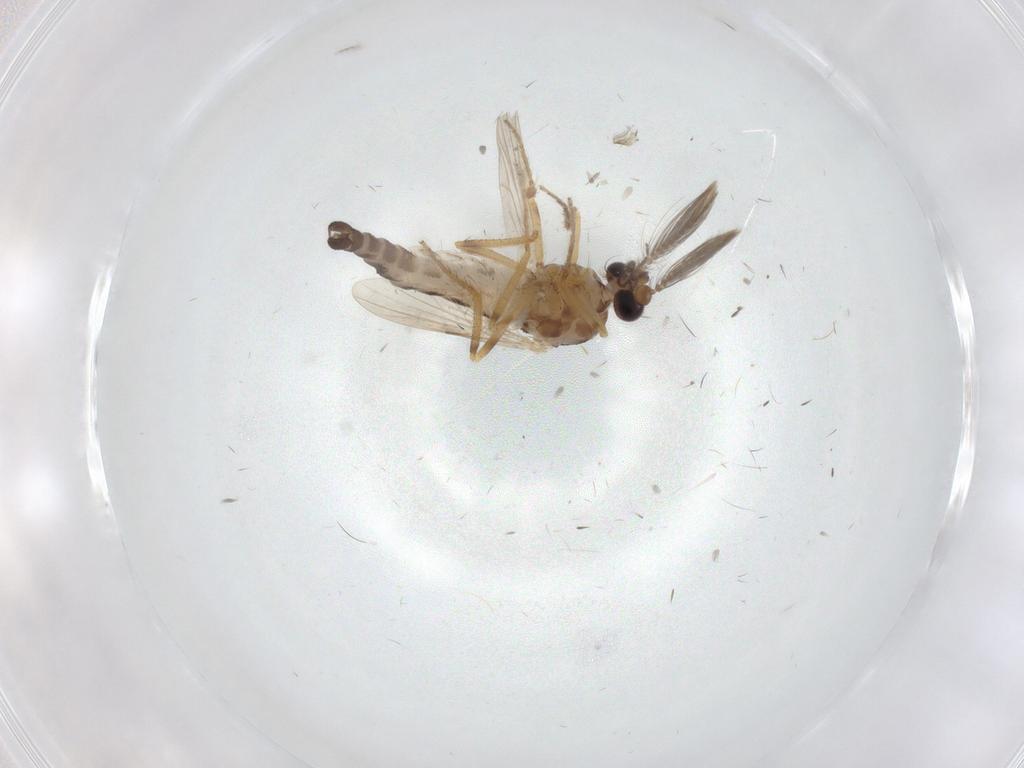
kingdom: Animalia
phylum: Arthropoda
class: Insecta
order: Diptera
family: Ceratopogonidae
